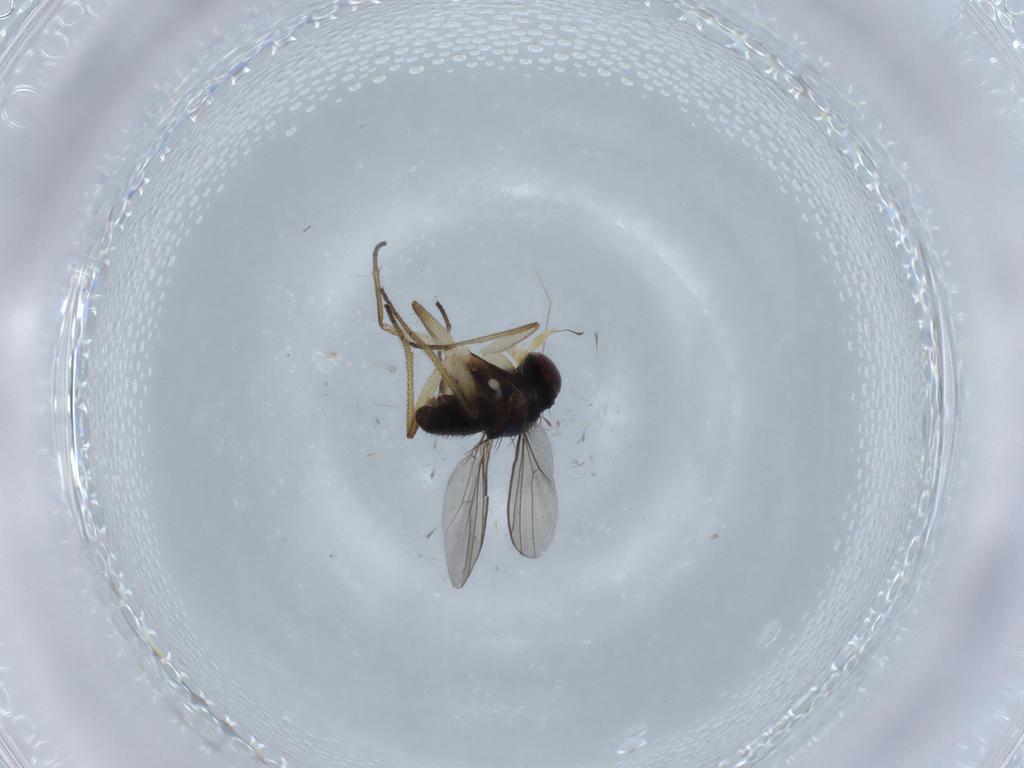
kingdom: Animalia
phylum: Arthropoda
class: Insecta
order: Diptera
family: Dolichopodidae
